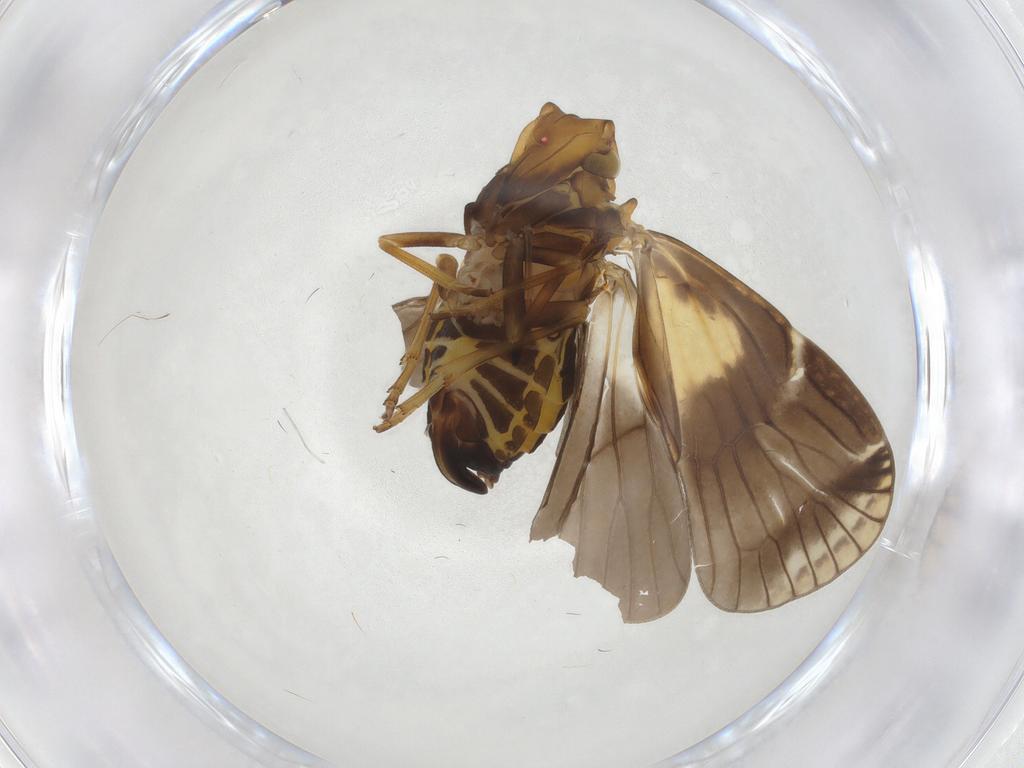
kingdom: Animalia
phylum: Arthropoda
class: Insecta
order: Hemiptera
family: Cixiidae
